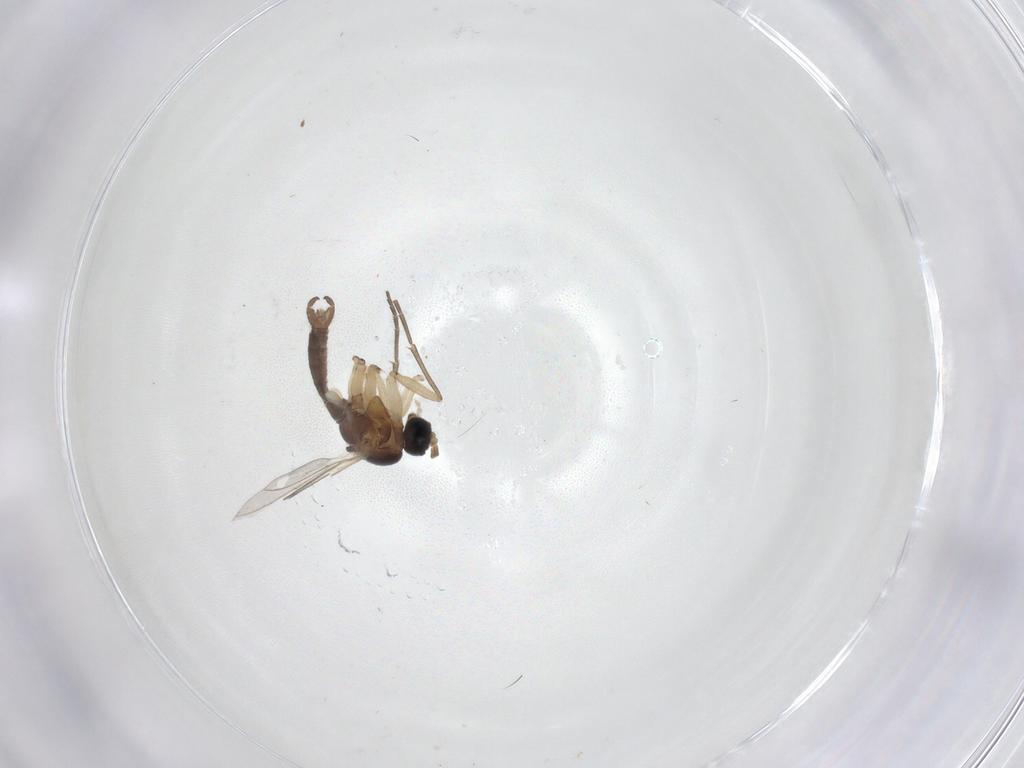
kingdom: Animalia
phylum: Arthropoda
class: Insecta
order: Diptera
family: Sciaridae
